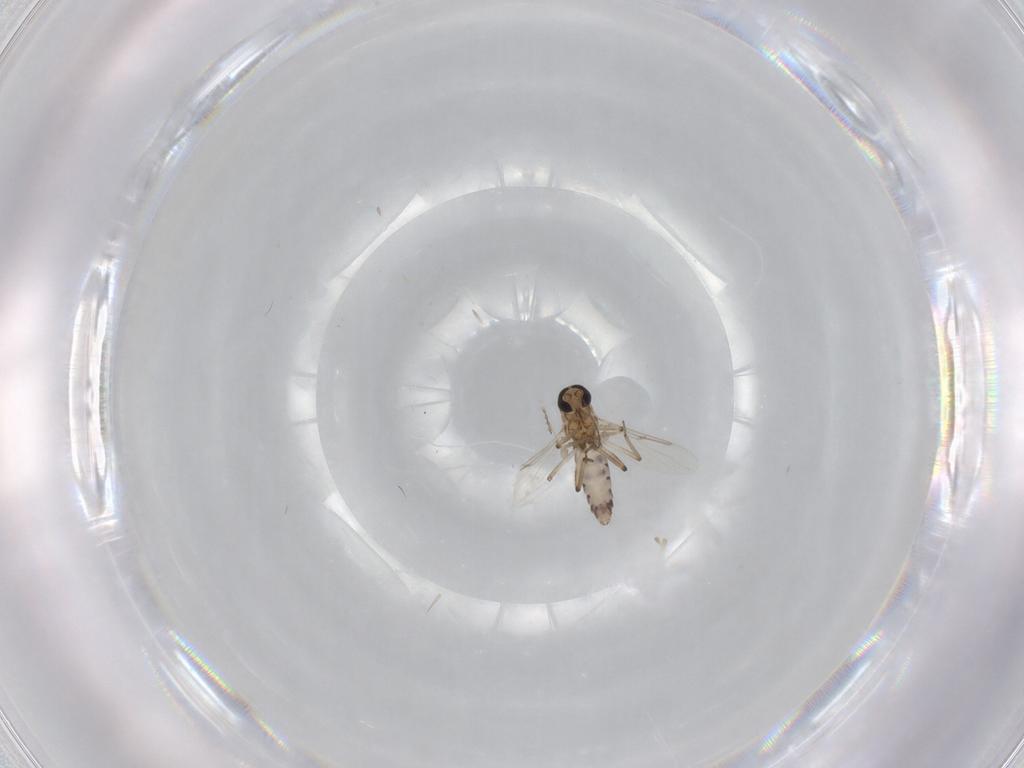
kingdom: Animalia
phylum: Arthropoda
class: Insecta
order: Diptera
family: Ceratopogonidae
